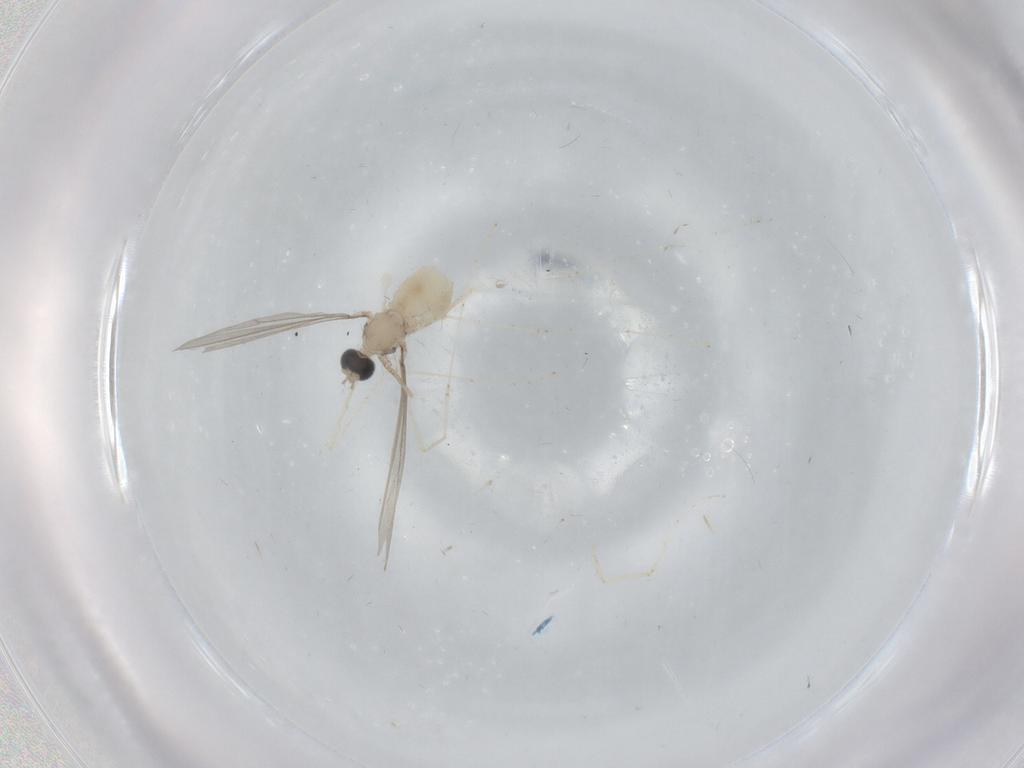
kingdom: Animalia
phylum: Arthropoda
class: Insecta
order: Diptera
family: Cecidomyiidae
